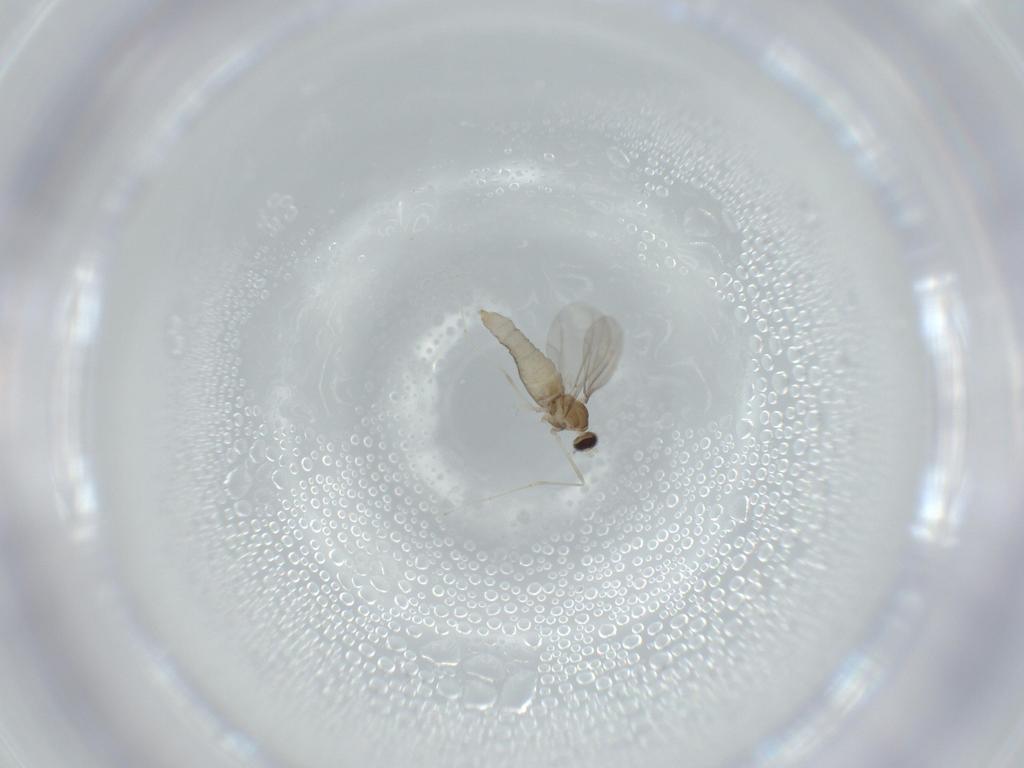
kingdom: Animalia
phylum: Arthropoda
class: Insecta
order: Diptera
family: Cecidomyiidae
